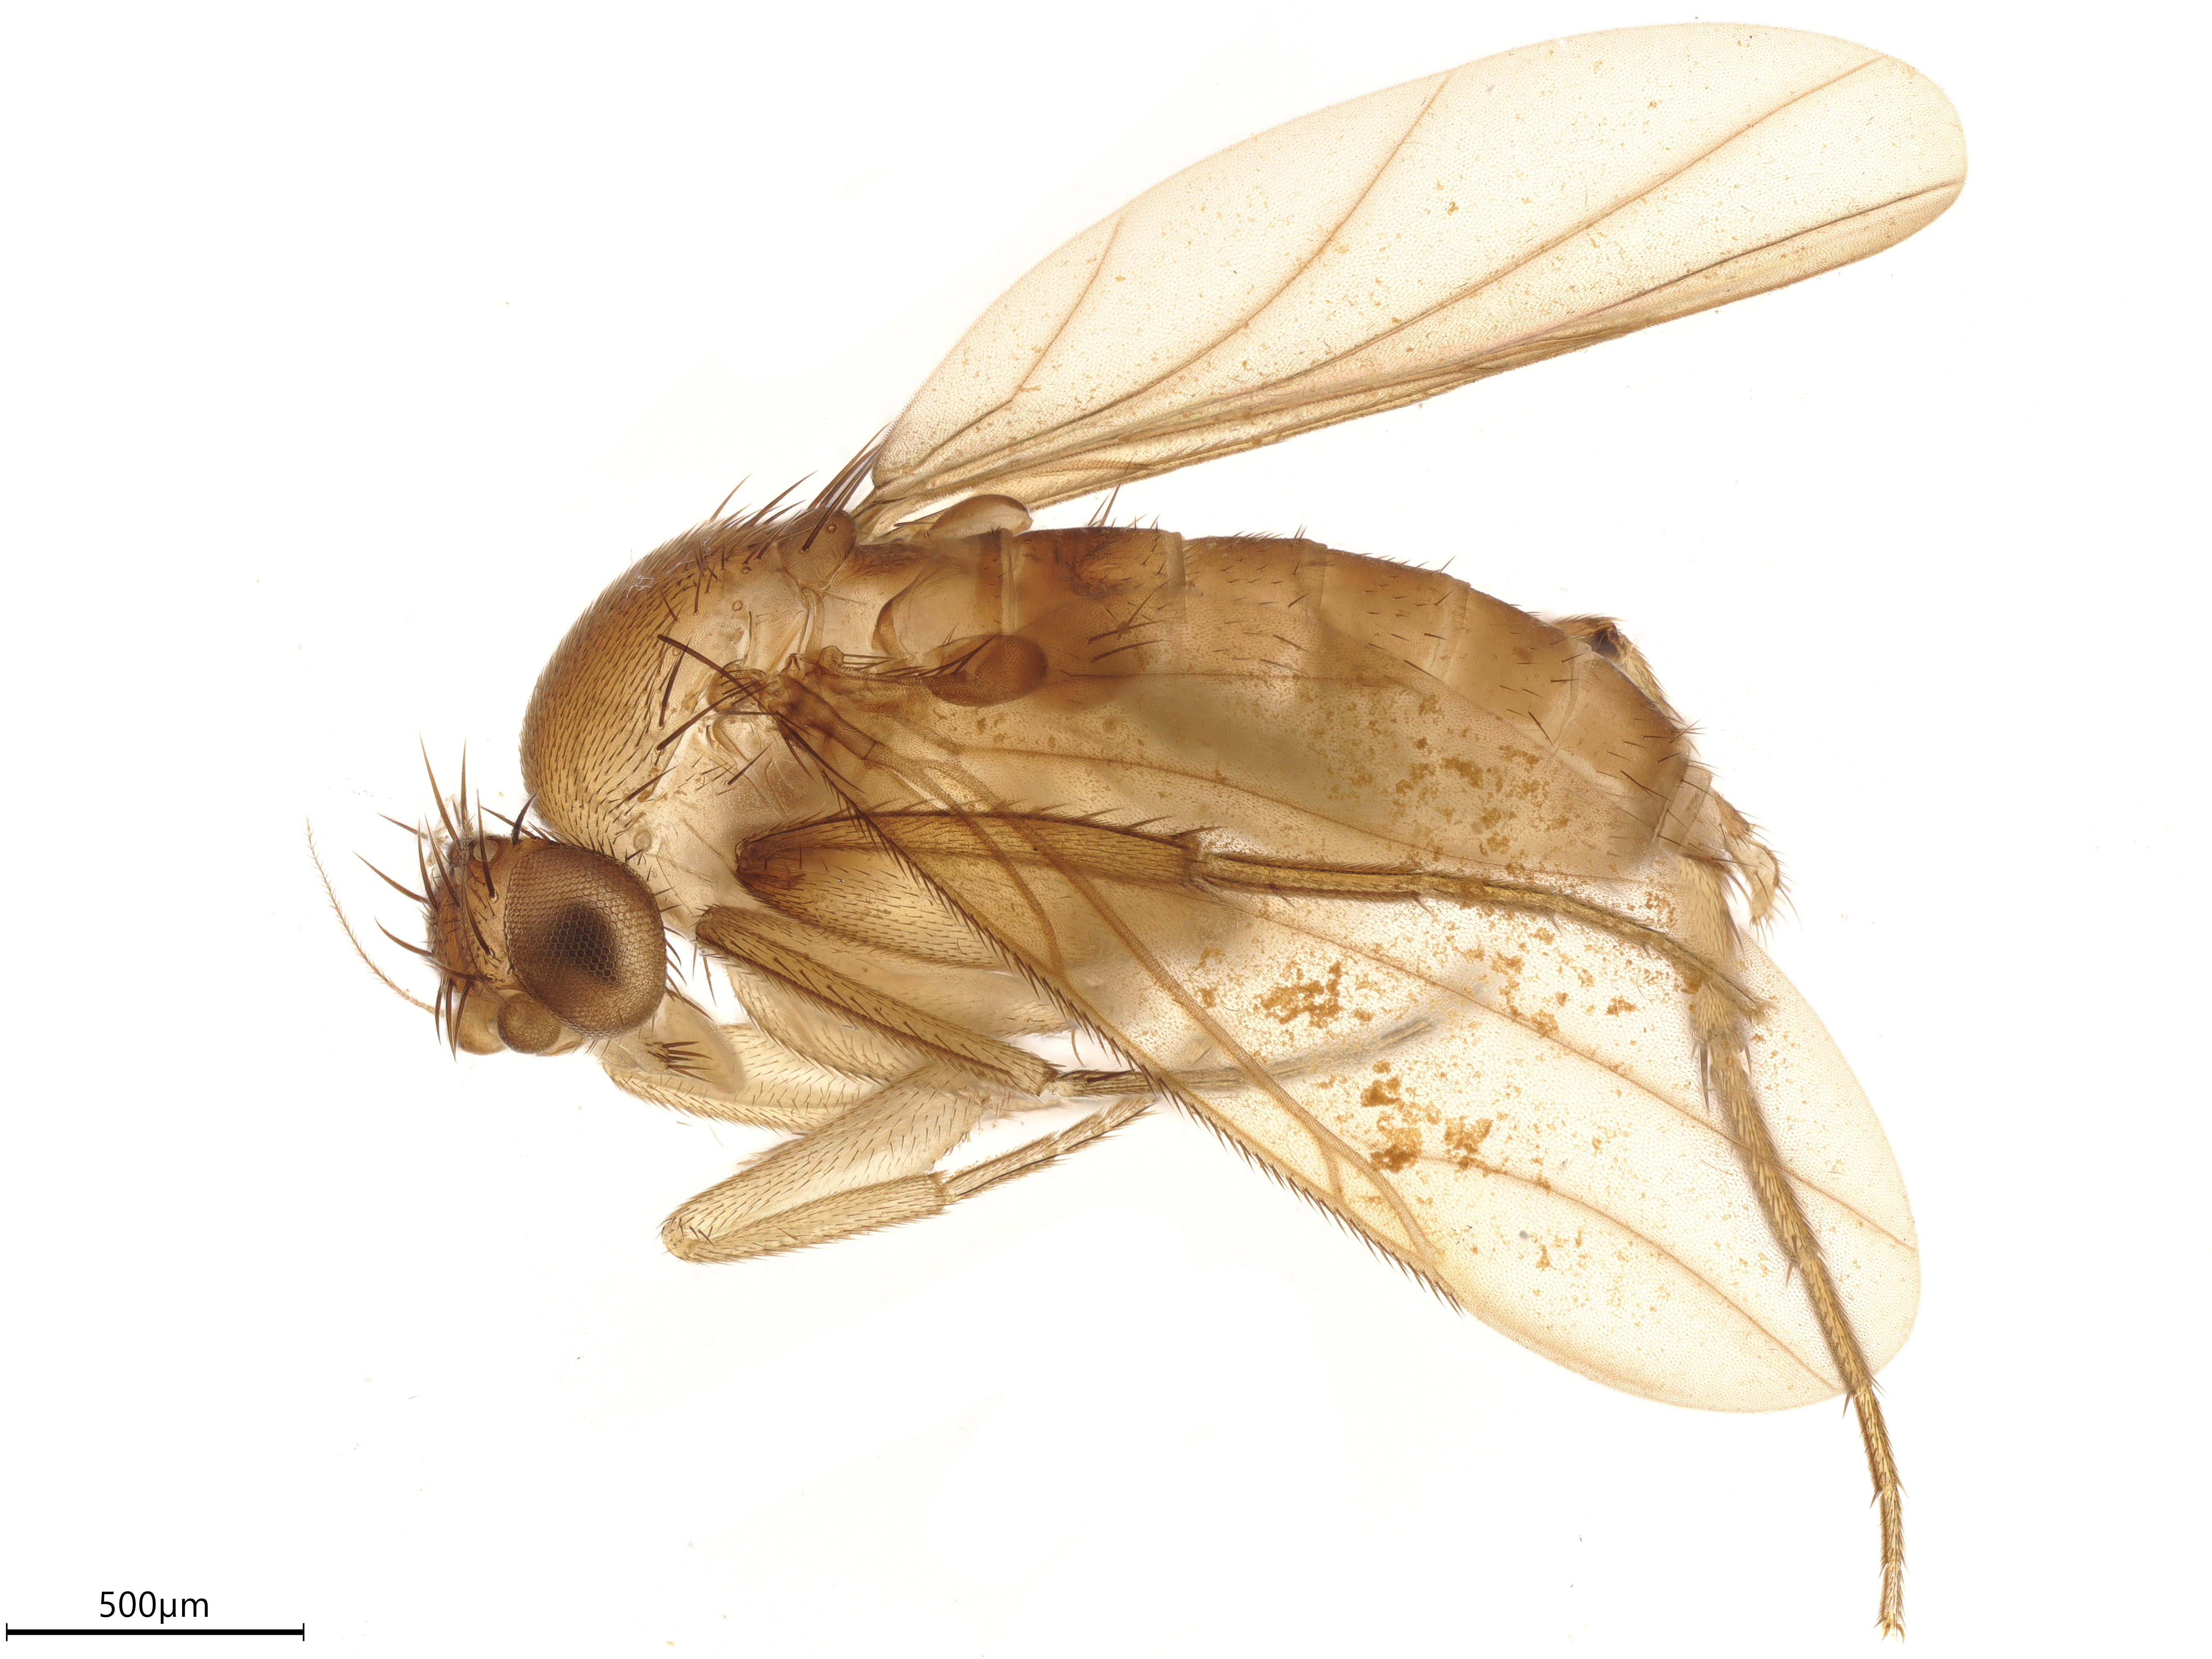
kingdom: Animalia
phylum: Arthropoda
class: Insecta
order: Diptera
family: Phoridae
